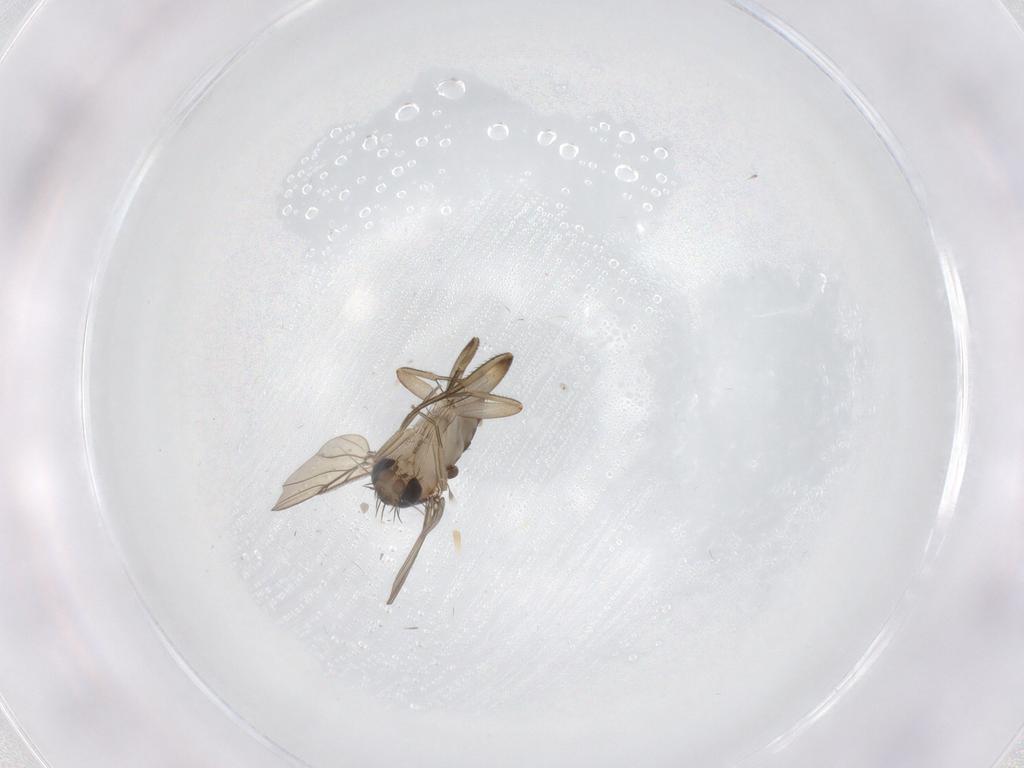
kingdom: Animalia
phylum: Arthropoda
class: Insecta
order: Diptera
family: Phoridae
